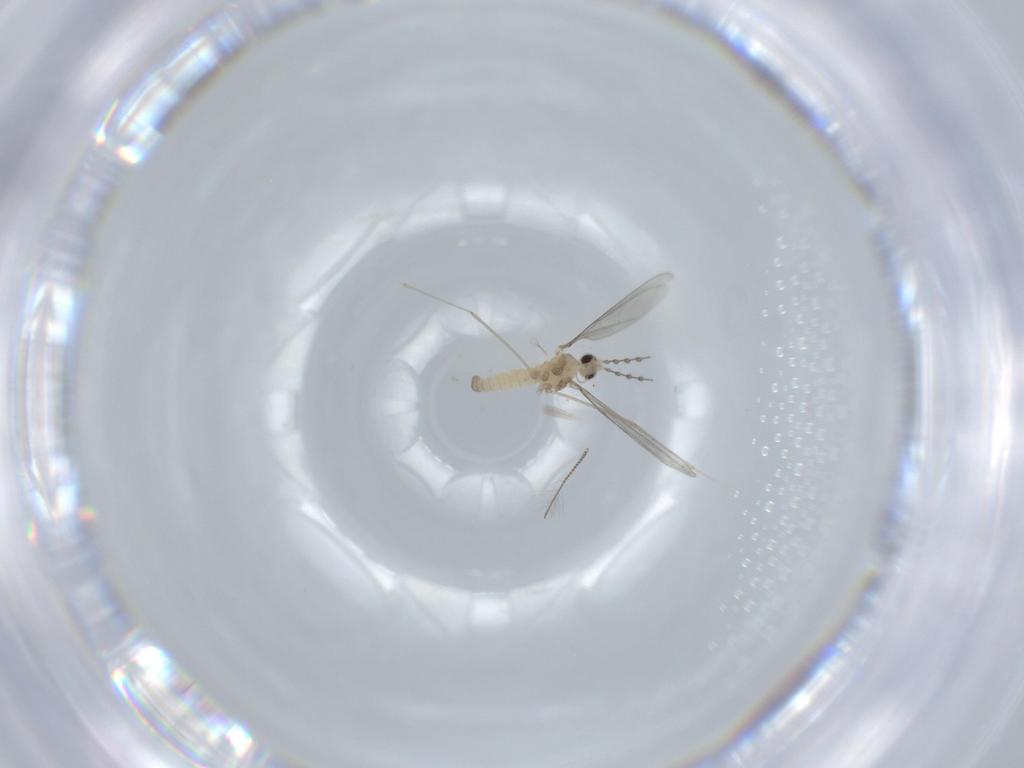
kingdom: Animalia
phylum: Arthropoda
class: Insecta
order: Diptera
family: Cecidomyiidae
